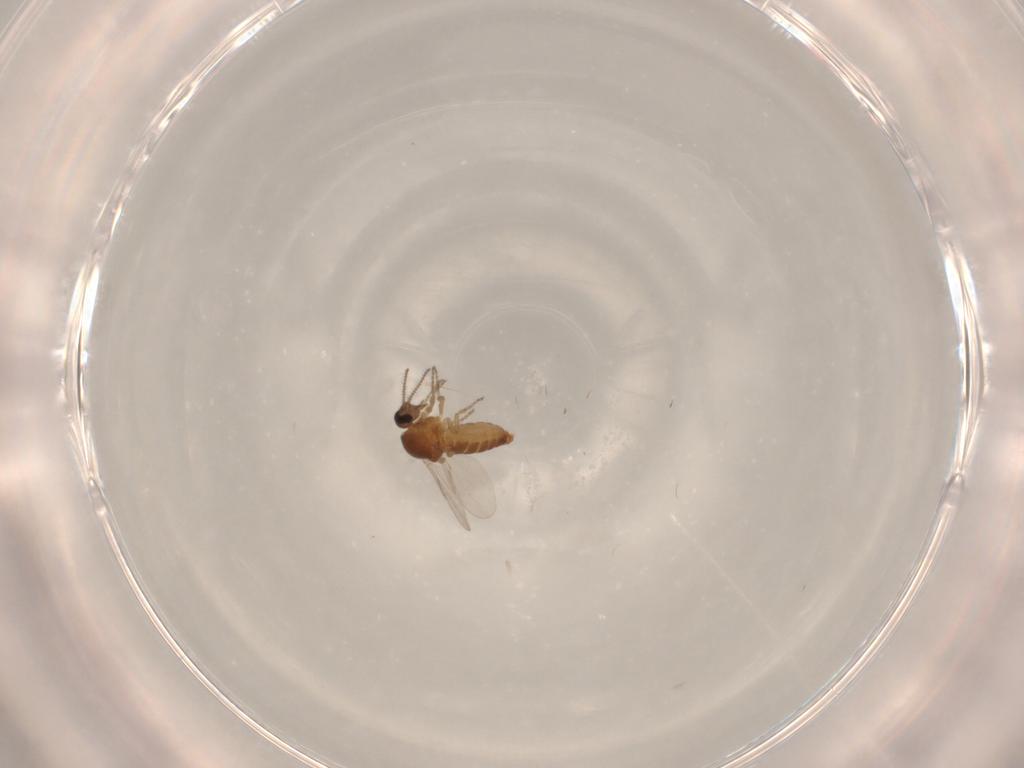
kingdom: Animalia
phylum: Arthropoda
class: Insecta
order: Diptera
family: Ceratopogonidae
